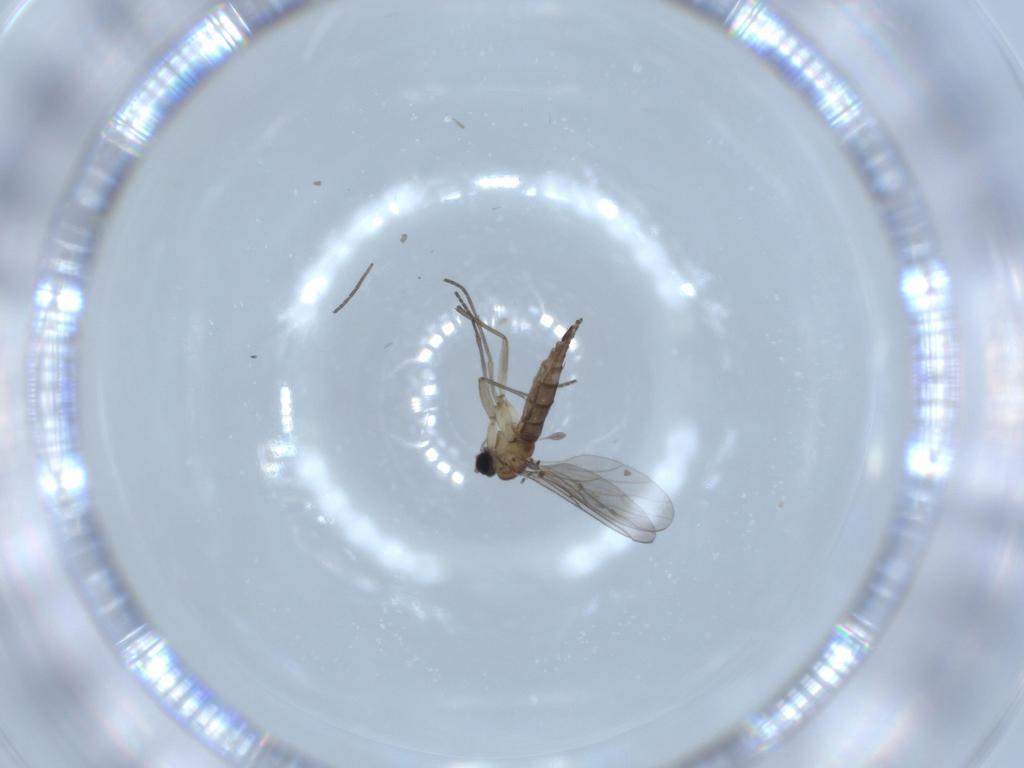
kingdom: Animalia
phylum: Arthropoda
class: Insecta
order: Diptera
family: Sciaridae
